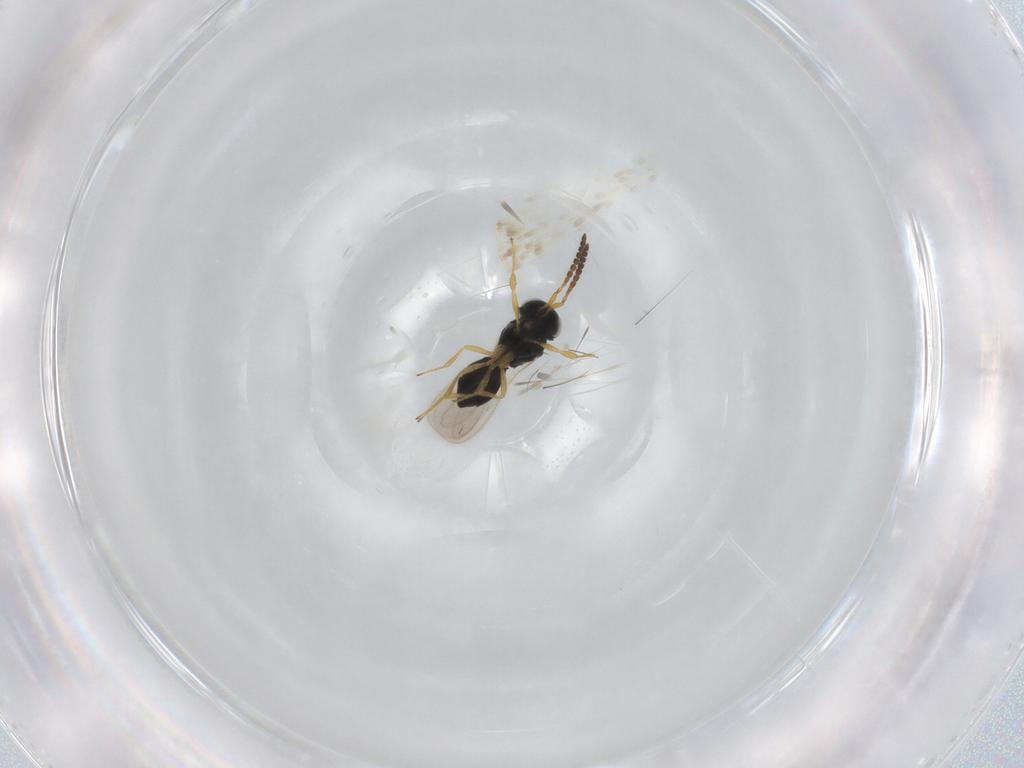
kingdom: Animalia
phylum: Arthropoda
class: Insecta
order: Hymenoptera
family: Scelionidae
